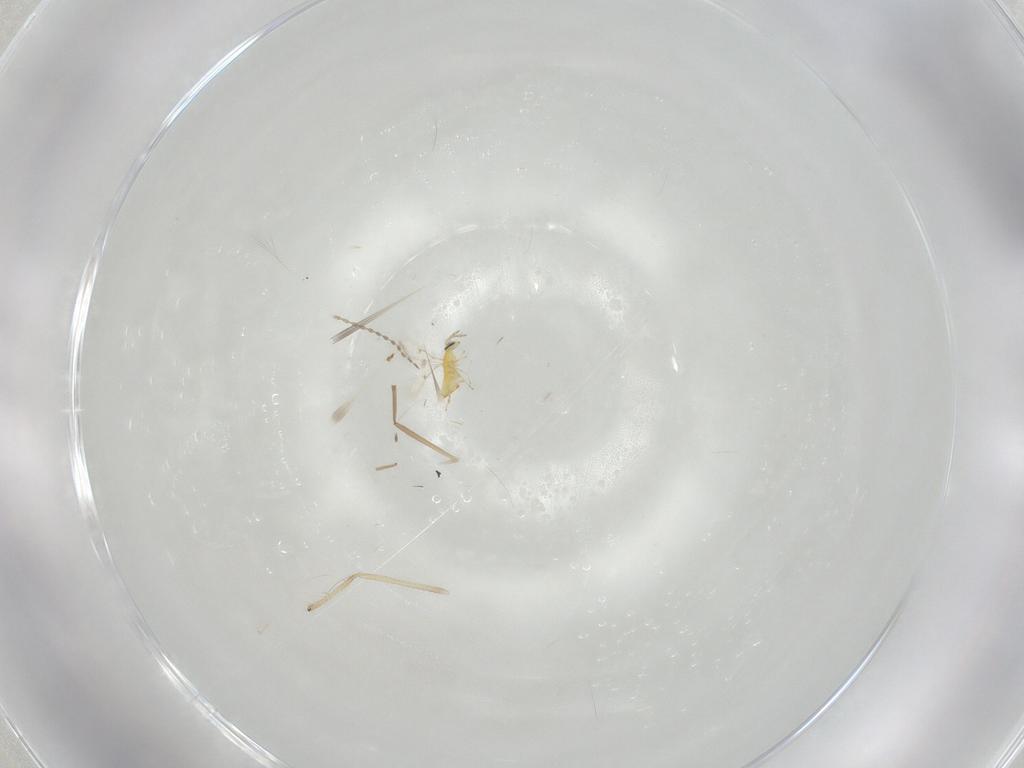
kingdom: Animalia
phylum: Arthropoda
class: Insecta
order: Hymenoptera
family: Trichogrammatidae
